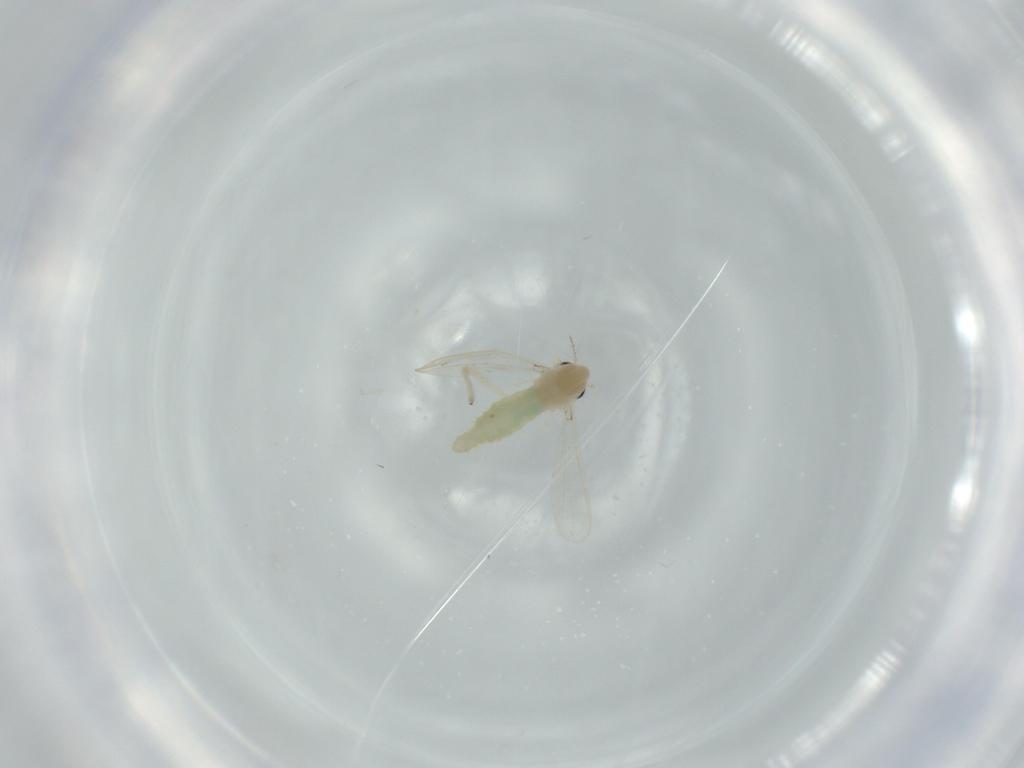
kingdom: Animalia
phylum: Arthropoda
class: Insecta
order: Diptera
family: Chironomidae
